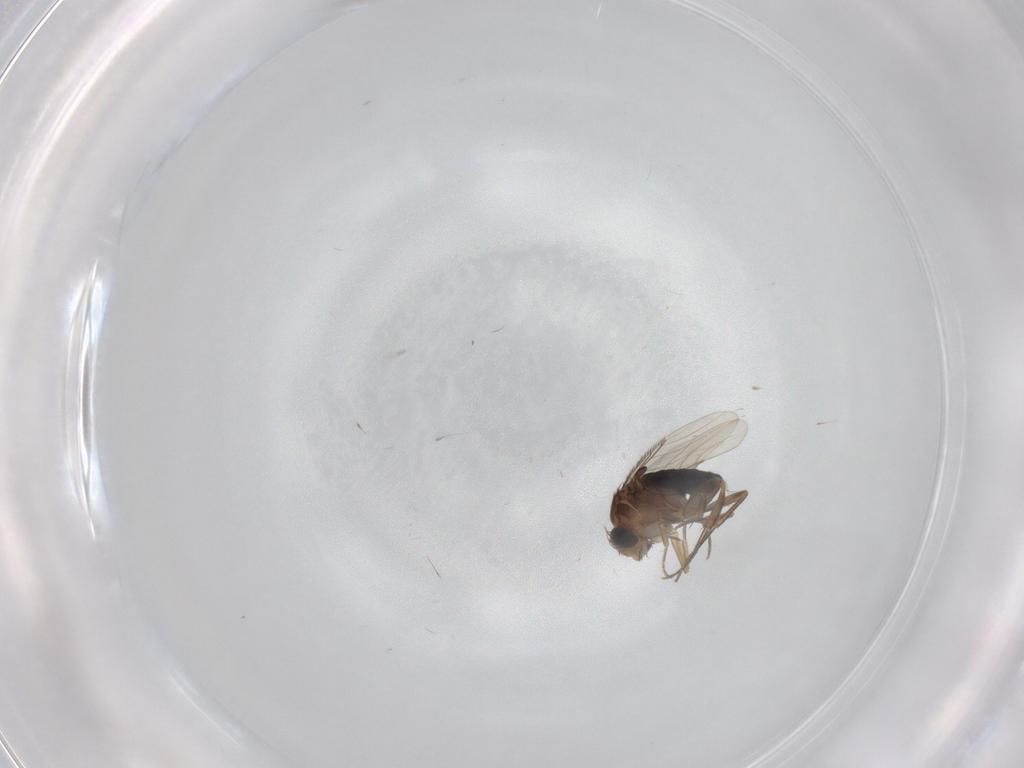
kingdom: Animalia
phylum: Arthropoda
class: Insecta
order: Diptera
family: Phoridae
